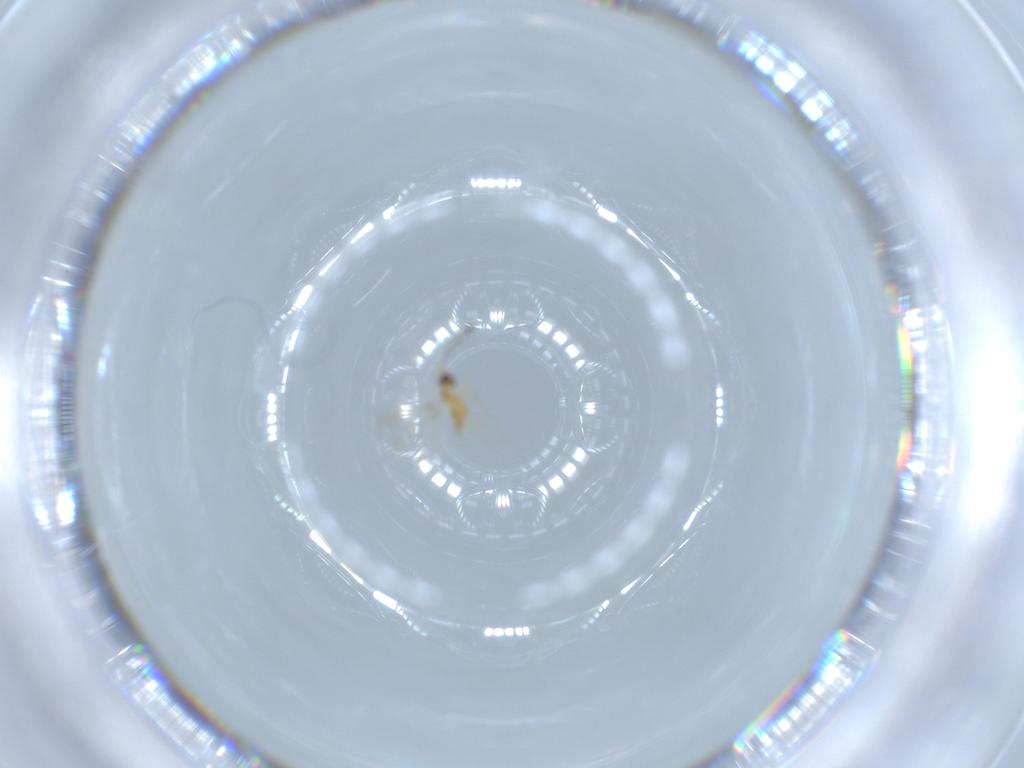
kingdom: Animalia
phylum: Arthropoda
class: Insecta
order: Hymenoptera
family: Mymaridae
